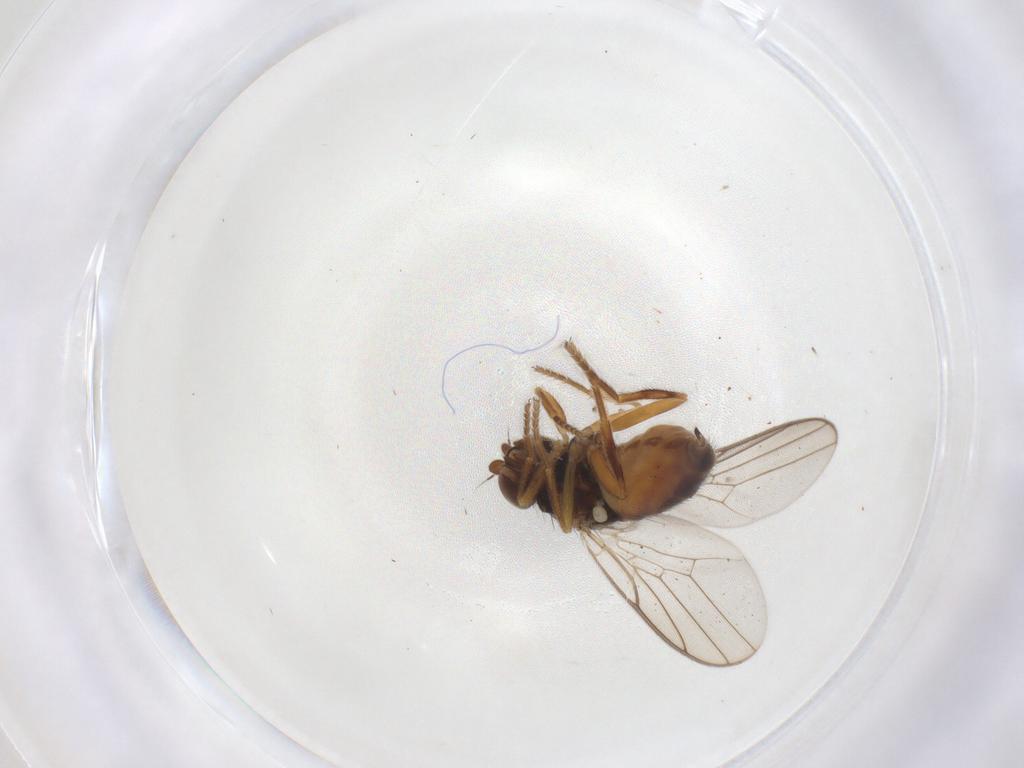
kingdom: Animalia
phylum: Arthropoda
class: Insecta
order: Diptera
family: Chloropidae
